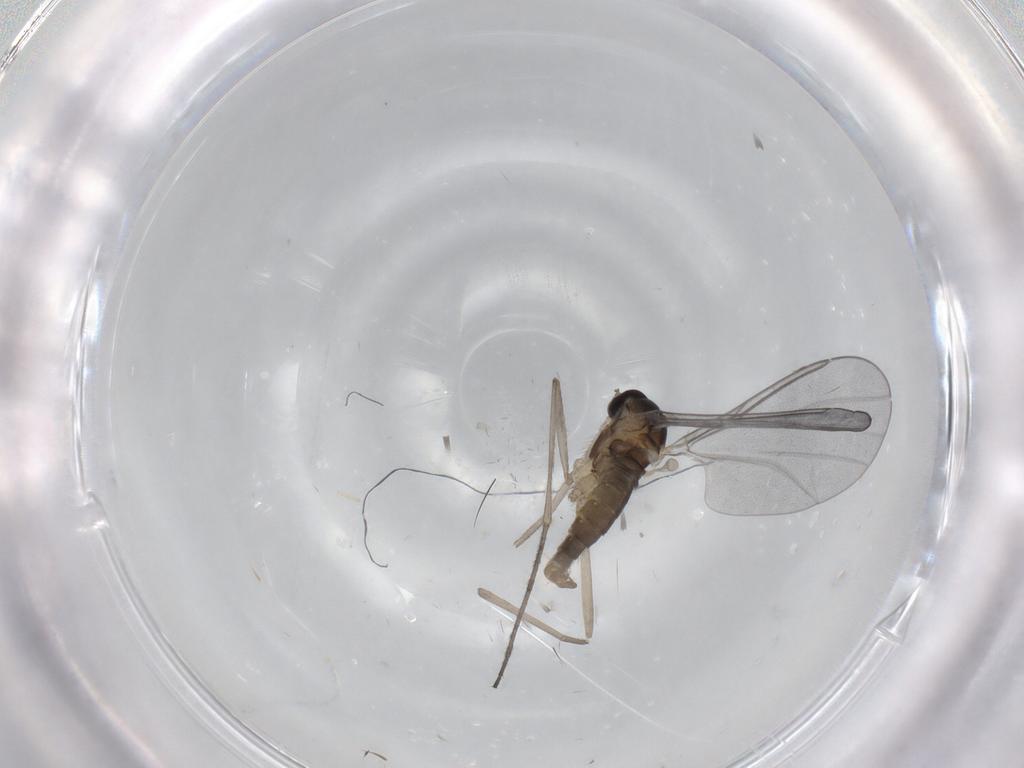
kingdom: Animalia
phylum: Arthropoda
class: Insecta
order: Diptera
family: Cecidomyiidae
